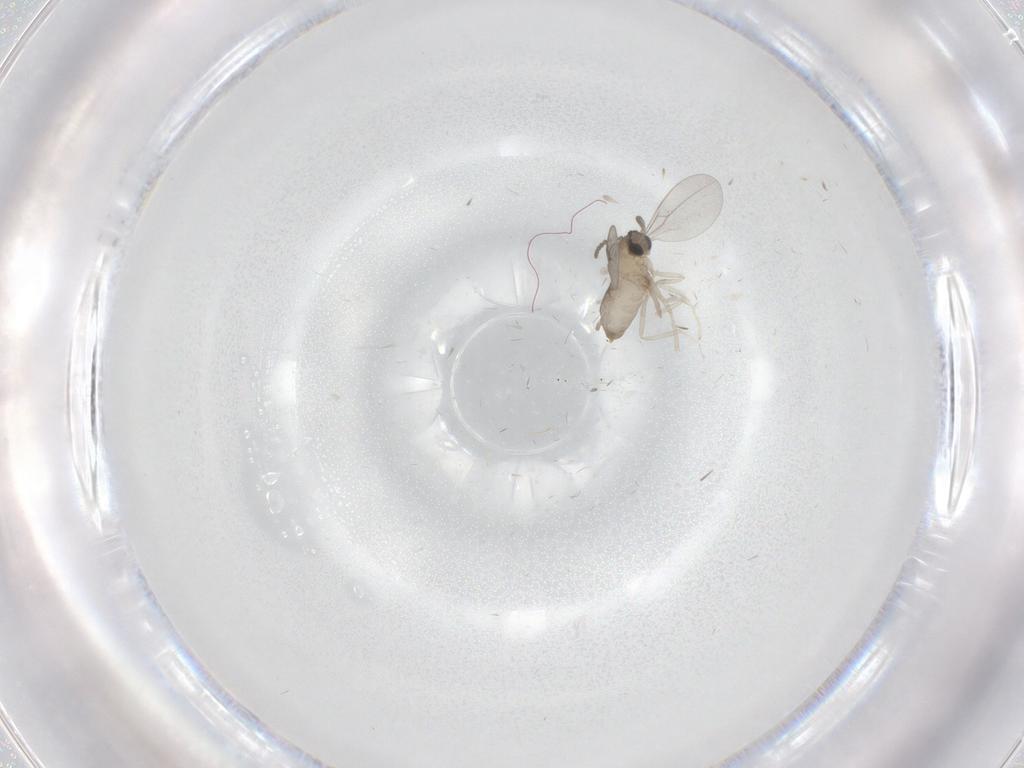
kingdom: Animalia
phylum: Arthropoda
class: Insecta
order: Diptera
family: Cecidomyiidae
